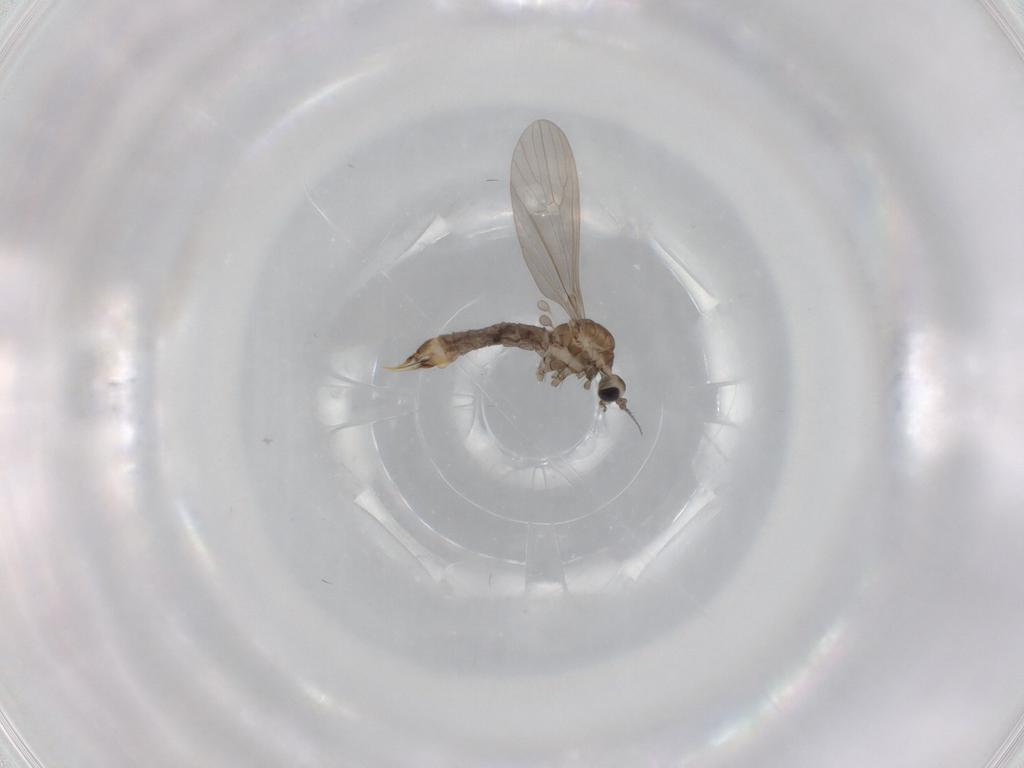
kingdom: Animalia
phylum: Arthropoda
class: Insecta
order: Diptera
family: Limoniidae
